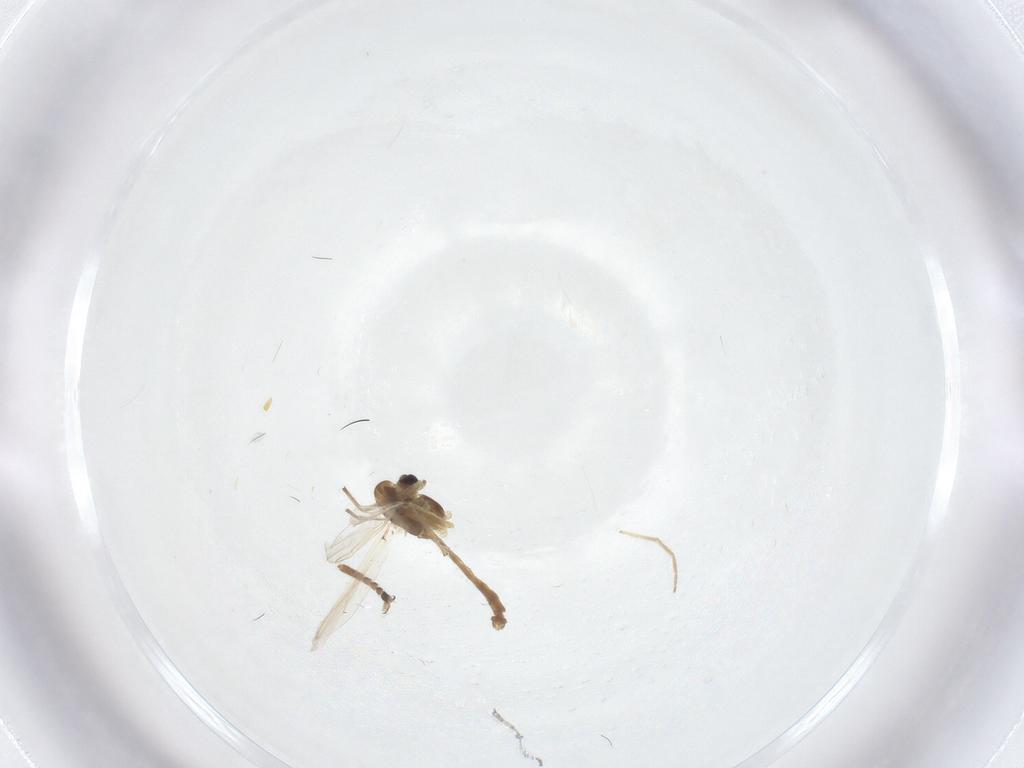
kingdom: Animalia
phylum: Arthropoda
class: Insecta
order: Diptera
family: Chironomidae
